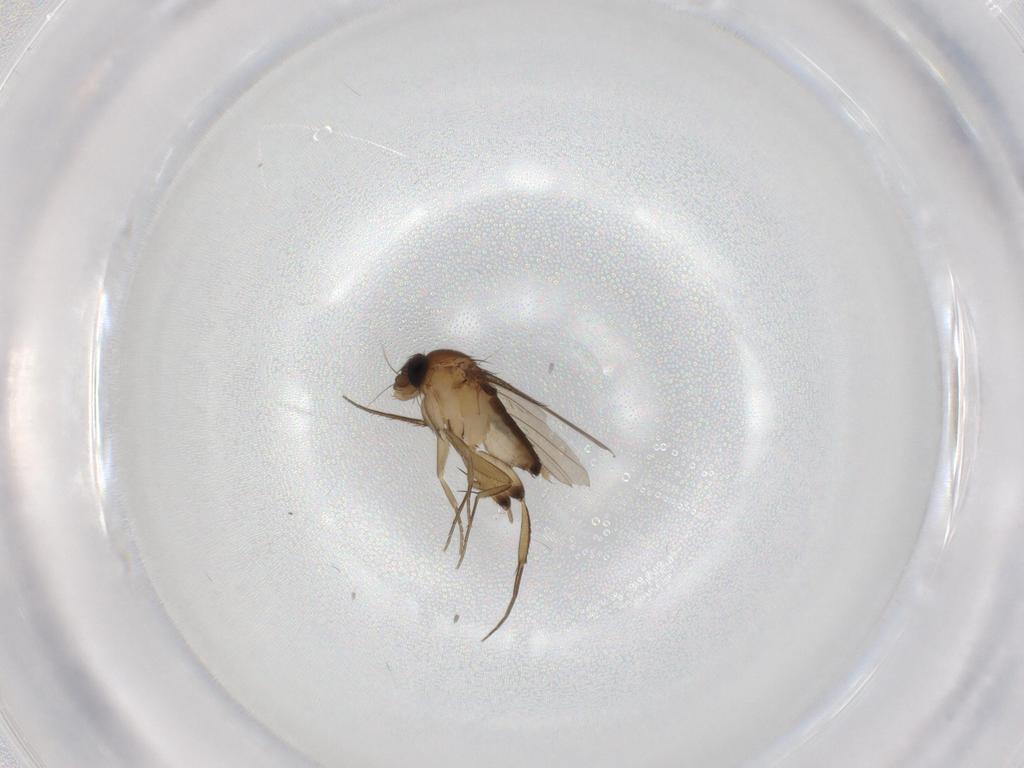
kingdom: Animalia
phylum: Arthropoda
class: Insecta
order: Diptera
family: Phoridae
